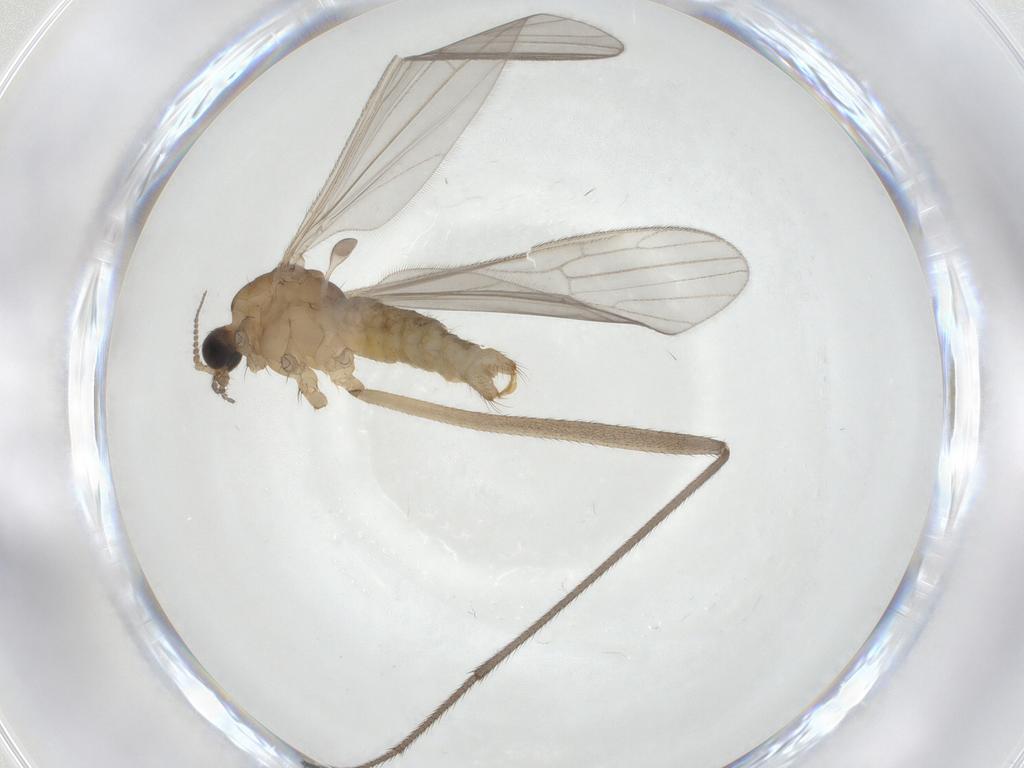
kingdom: Animalia
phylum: Arthropoda
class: Insecta
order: Diptera
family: Limoniidae
